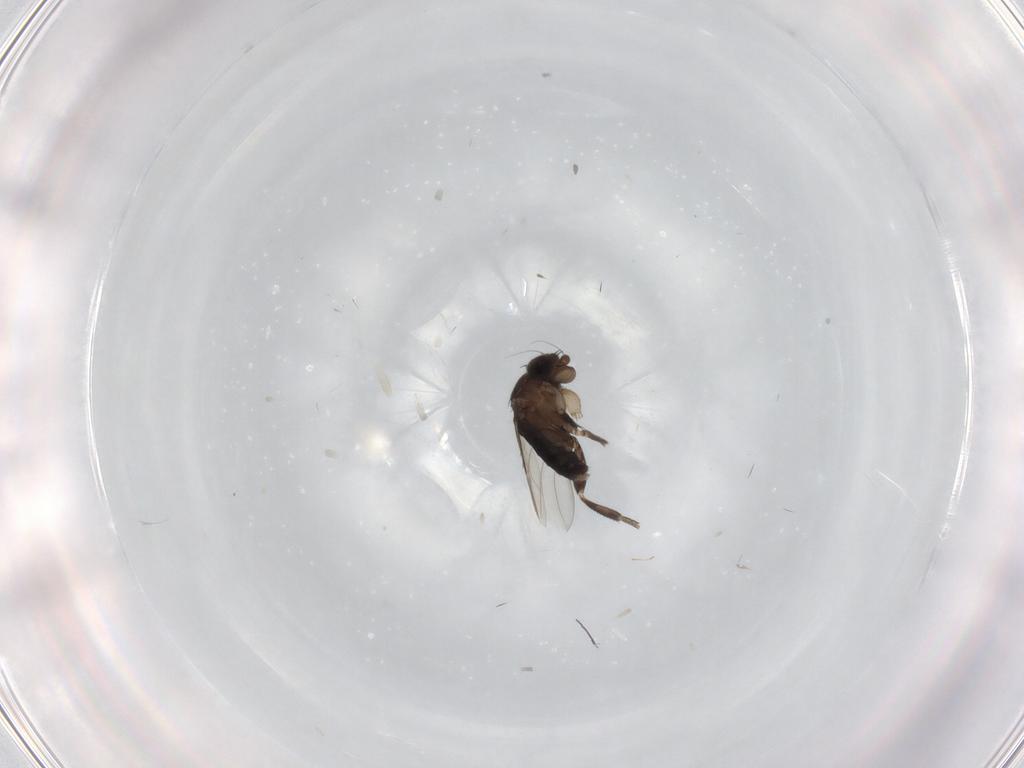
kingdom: Animalia
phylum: Arthropoda
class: Insecta
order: Diptera
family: Phoridae
